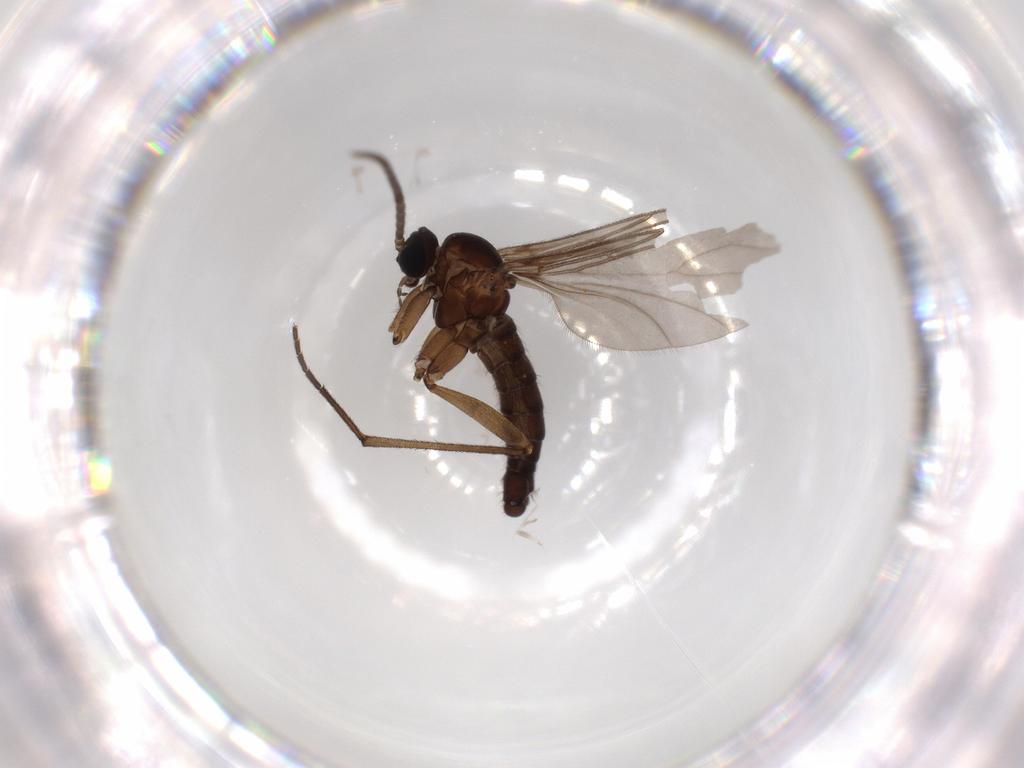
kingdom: Animalia
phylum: Arthropoda
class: Insecta
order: Diptera
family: Sciaridae
